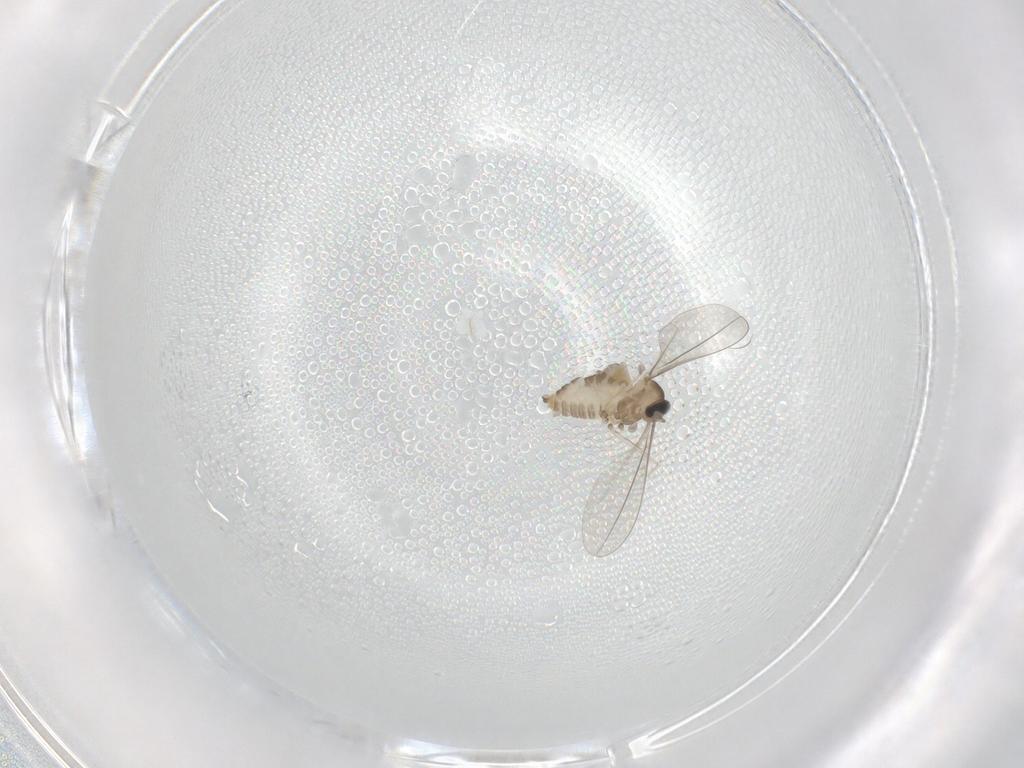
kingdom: Animalia
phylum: Arthropoda
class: Insecta
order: Diptera
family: Cecidomyiidae
